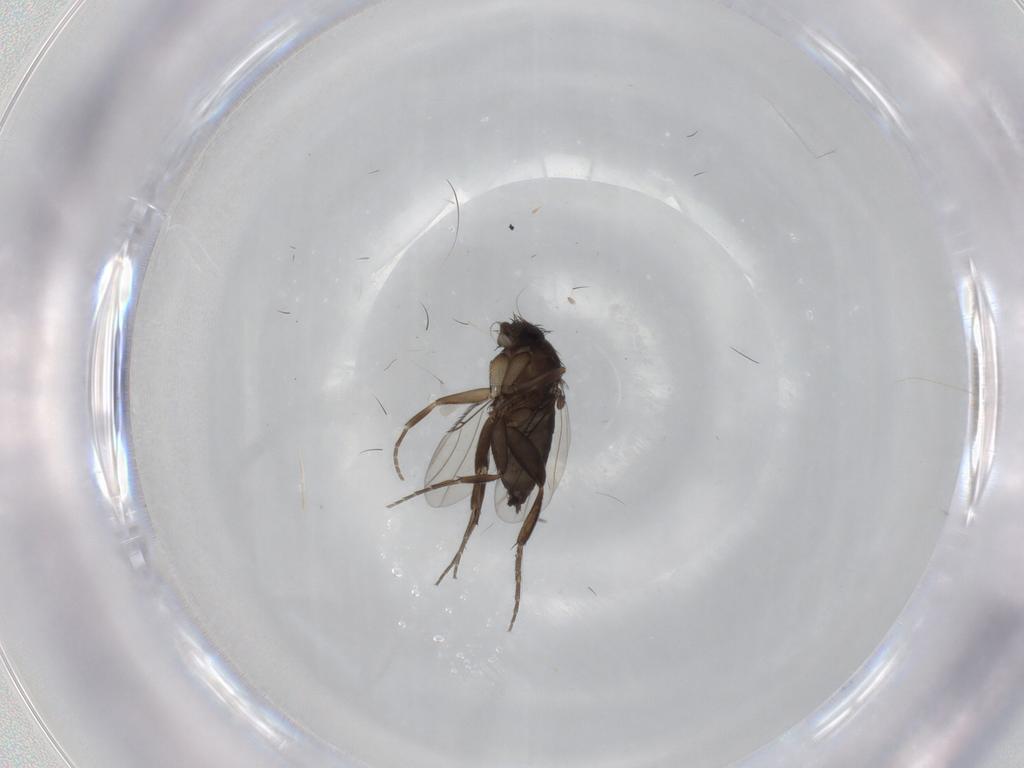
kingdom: Animalia
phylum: Arthropoda
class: Insecta
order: Diptera
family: Phoridae
